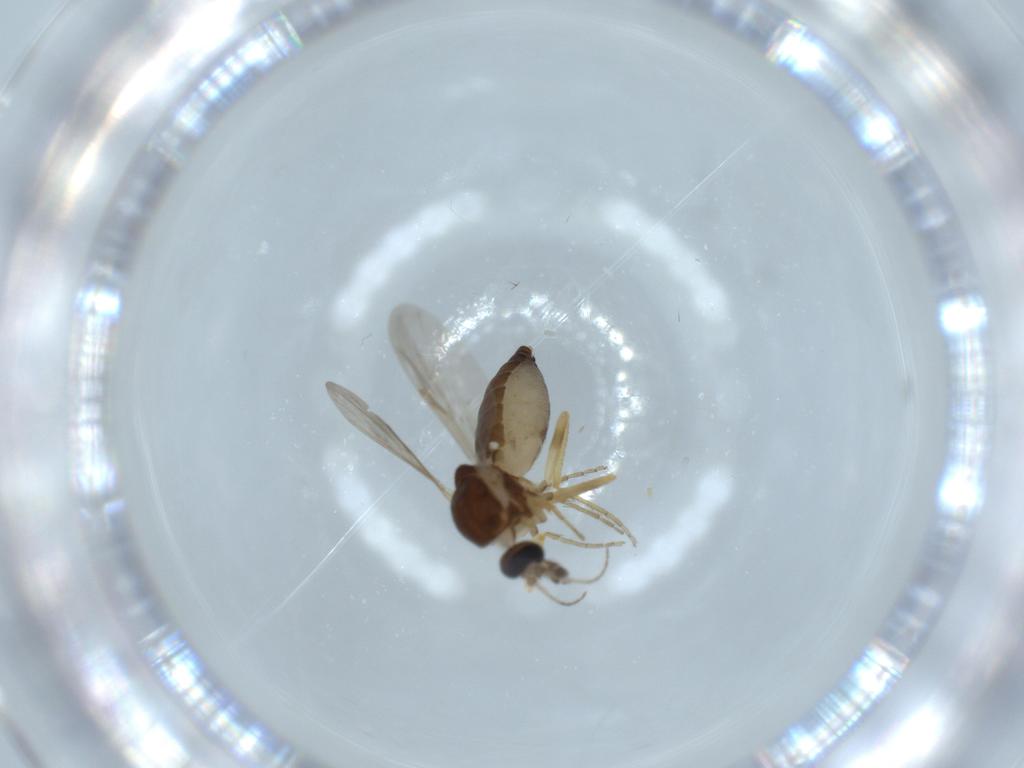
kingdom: Animalia
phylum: Arthropoda
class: Insecta
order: Diptera
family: Ceratopogonidae
